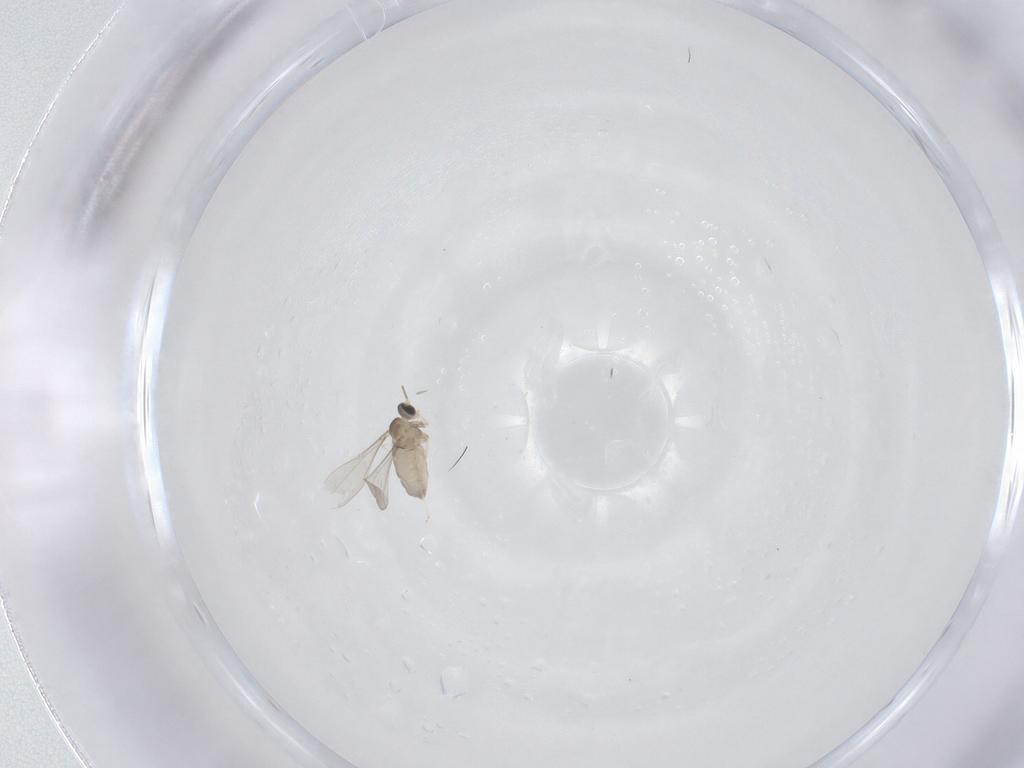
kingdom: Animalia
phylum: Arthropoda
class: Insecta
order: Diptera
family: Cecidomyiidae
